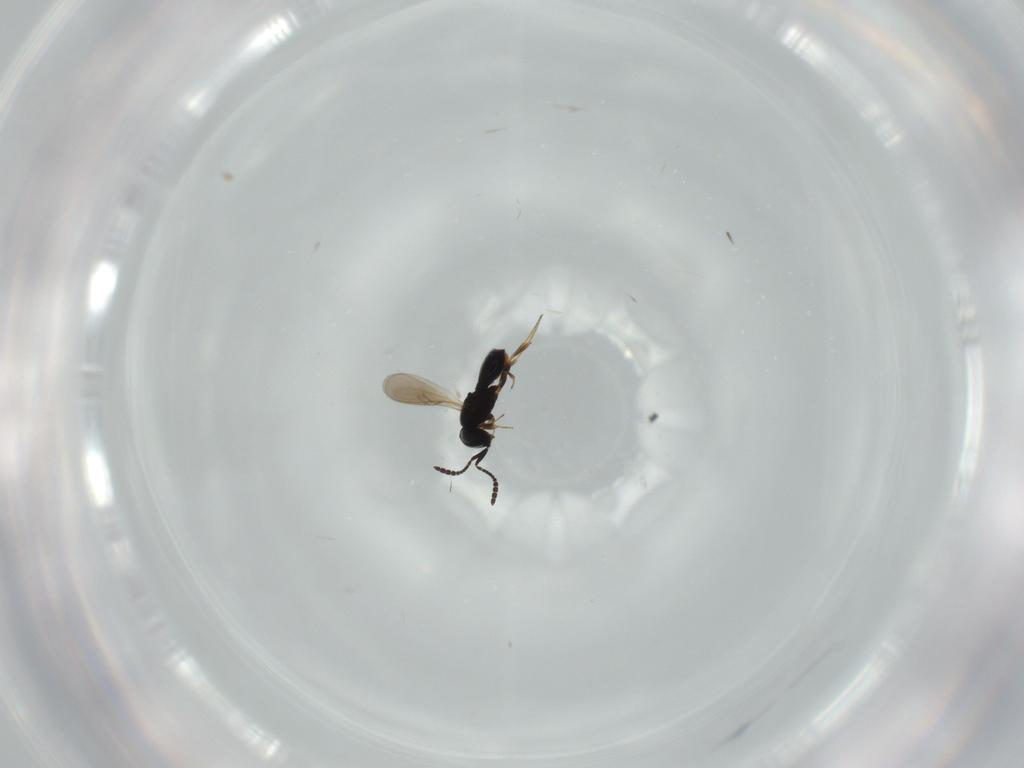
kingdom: Animalia
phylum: Arthropoda
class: Insecta
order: Hymenoptera
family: Scelionidae
